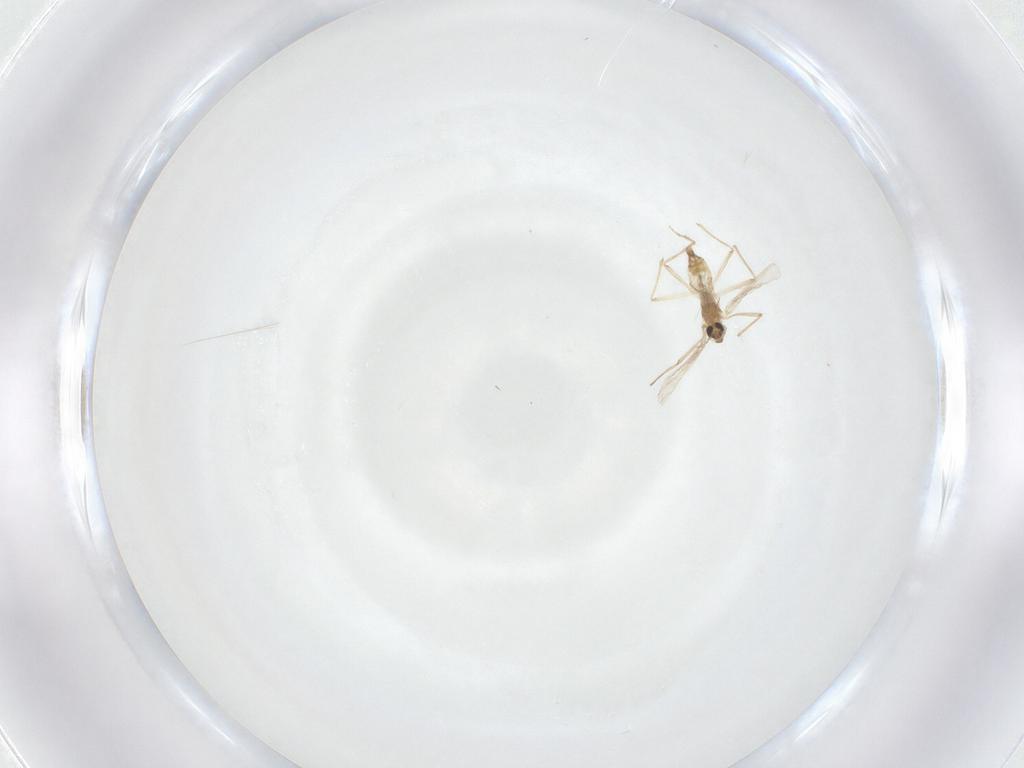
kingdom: Animalia
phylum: Arthropoda
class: Insecta
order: Diptera
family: Chironomidae
